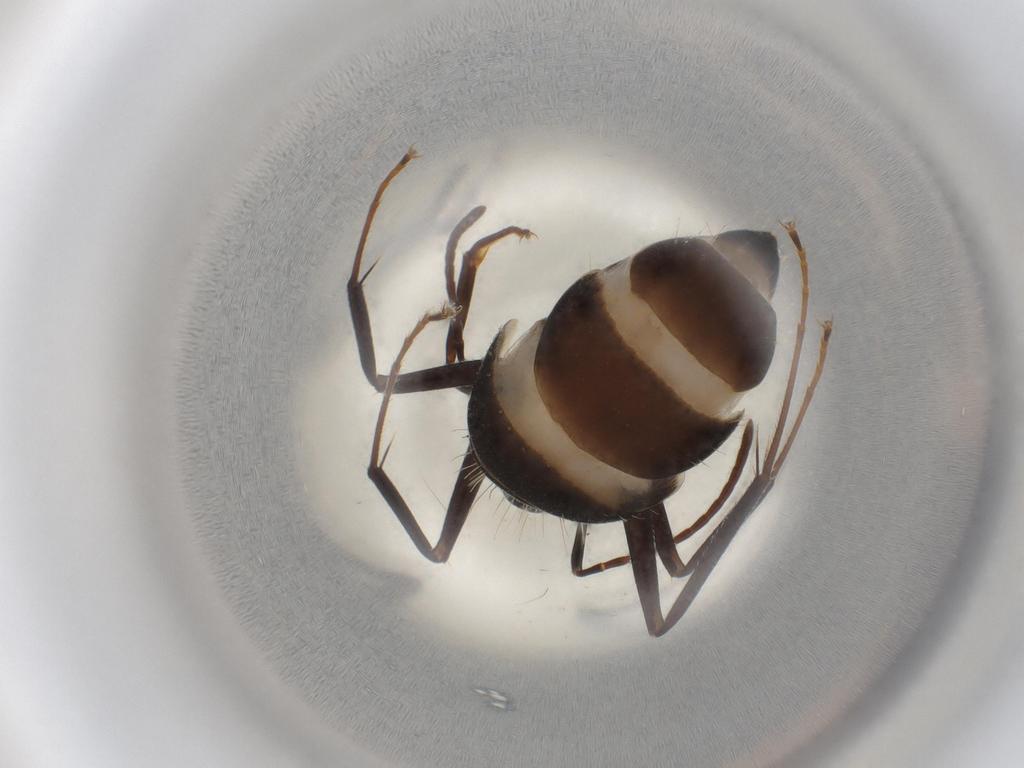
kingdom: Animalia
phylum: Arthropoda
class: Insecta
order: Hymenoptera
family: Formicidae
